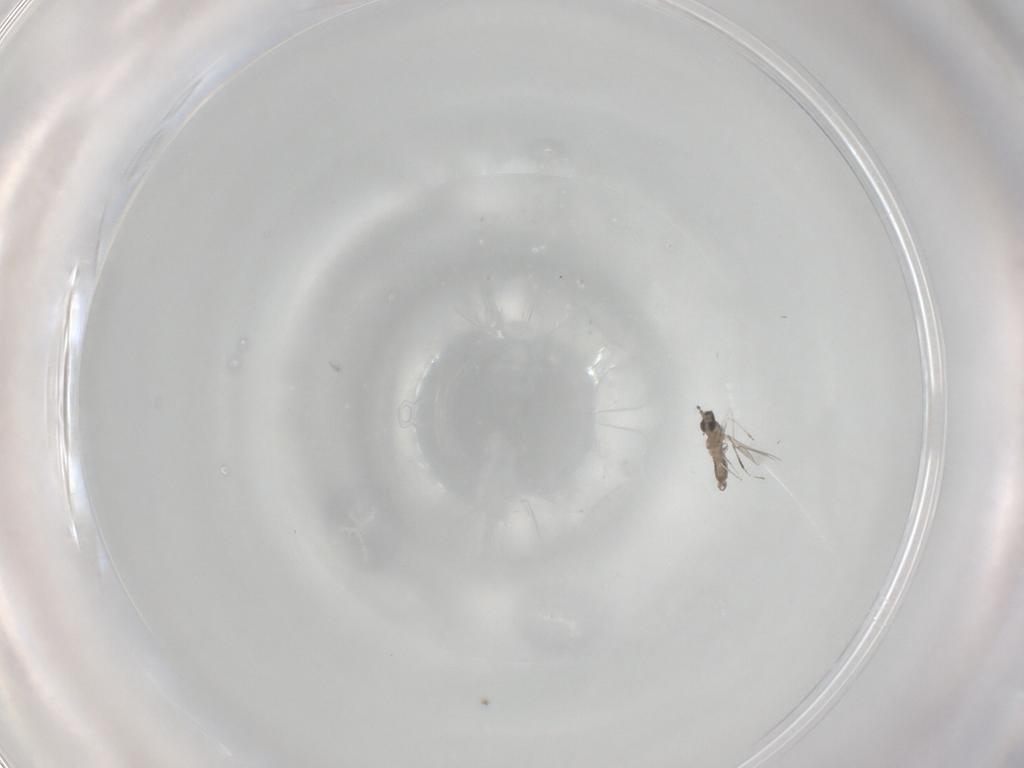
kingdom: Animalia
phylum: Arthropoda
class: Insecta
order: Diptera
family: Cecidomyiidae
